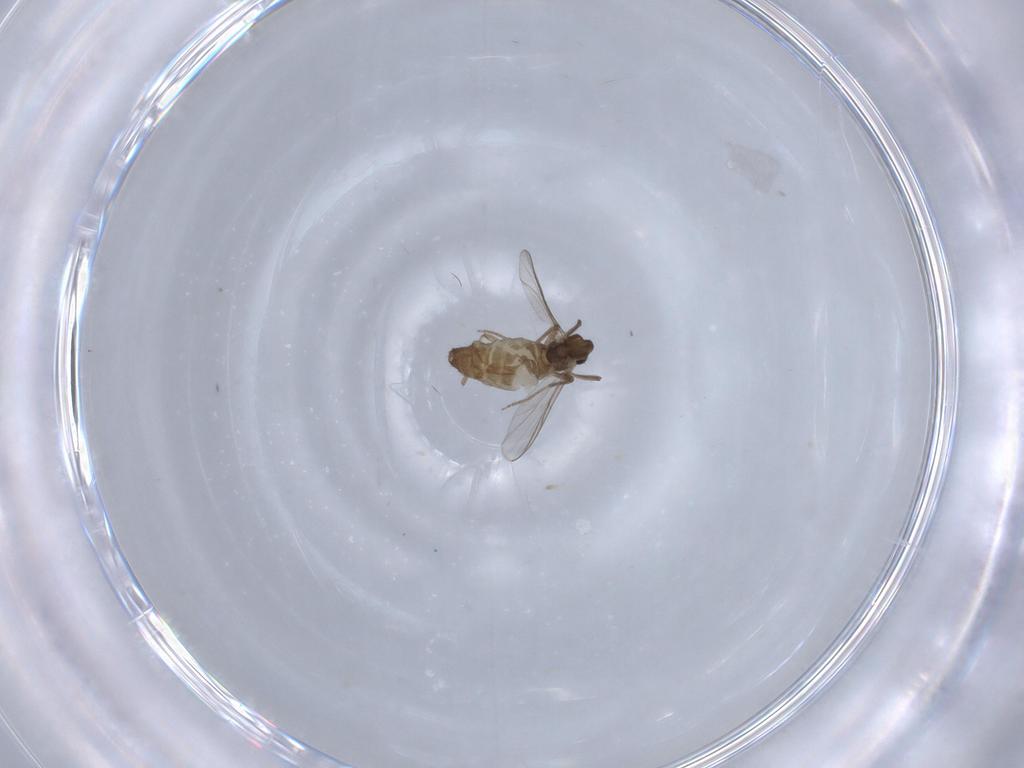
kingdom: Animalia
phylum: Arthropoda
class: Insecta
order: Diptera
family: Chironomidae
